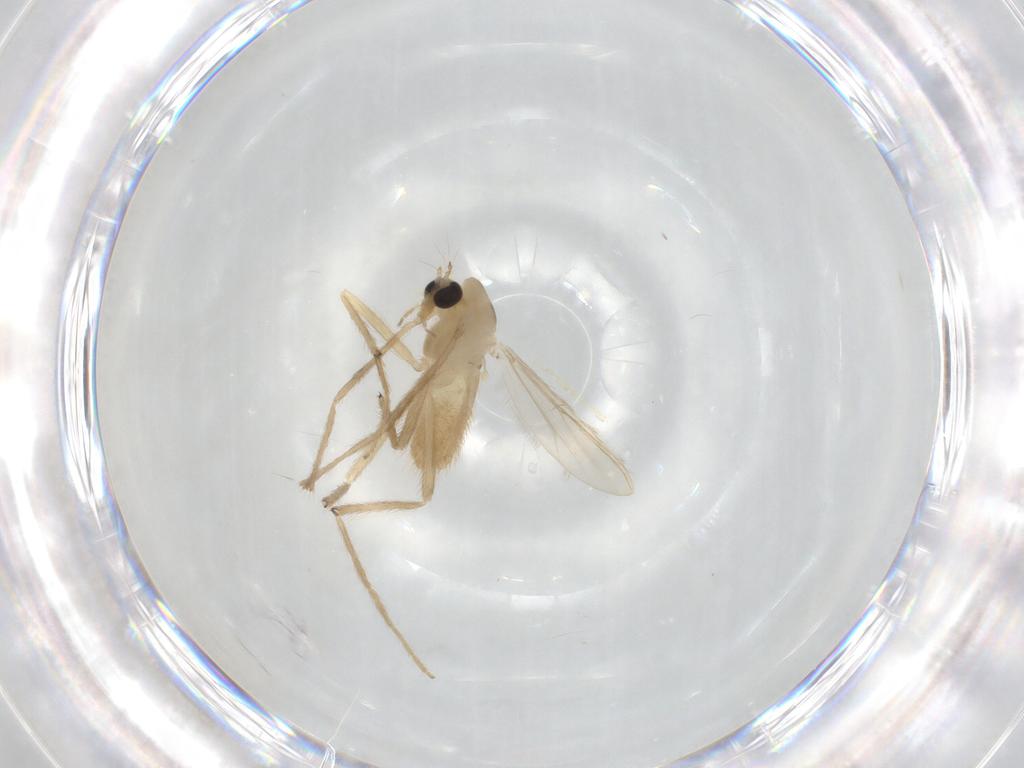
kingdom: Animalia
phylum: Arthropoda
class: Insecta
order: Diptera
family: Chironomidae
